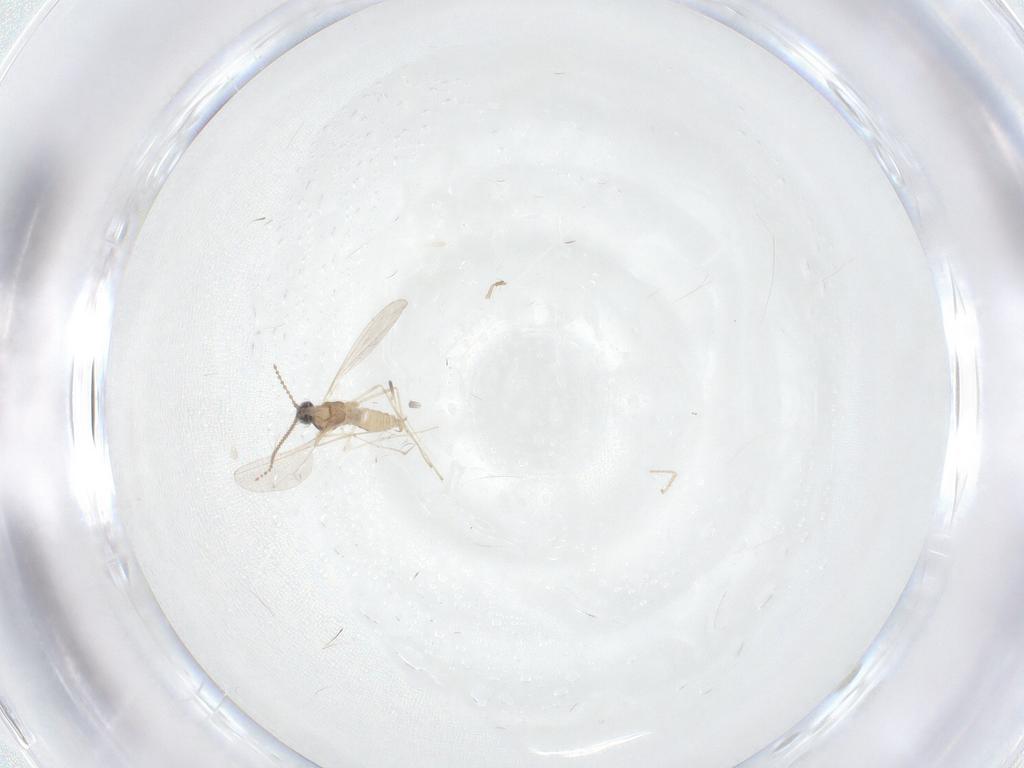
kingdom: Animalia
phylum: Arthropoda
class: Insecta
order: Diptera
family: Cecidomyiidae
